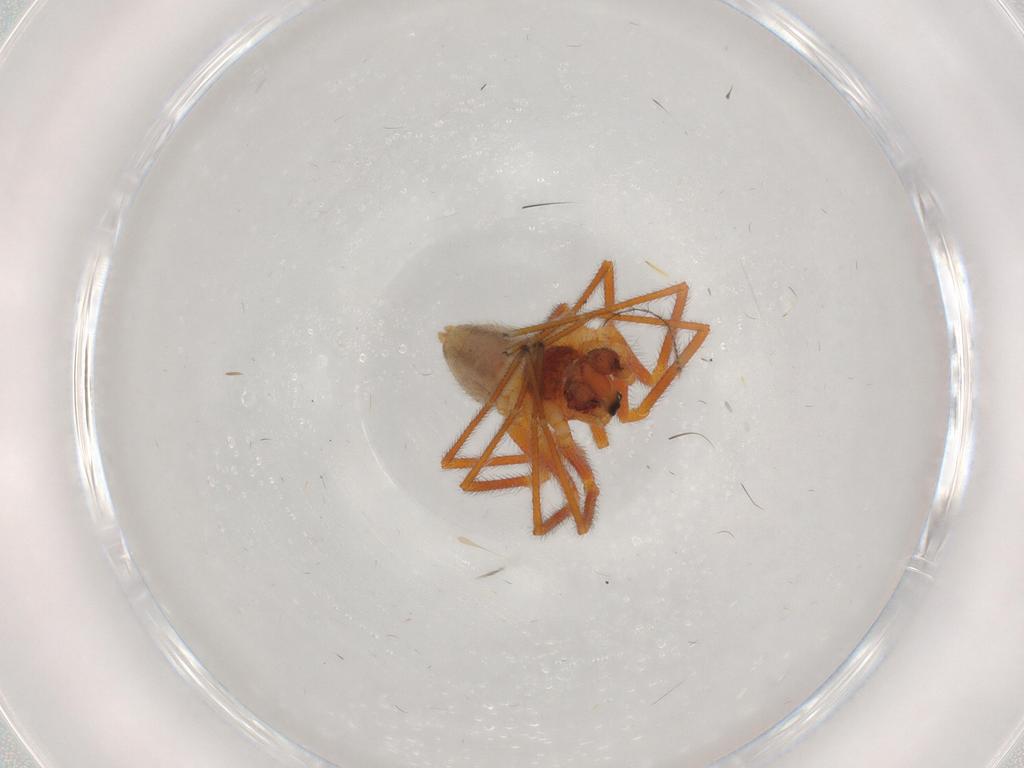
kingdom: Animalia
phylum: Arthropoda
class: Arachnida
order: Araneae
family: Linyphiidae
